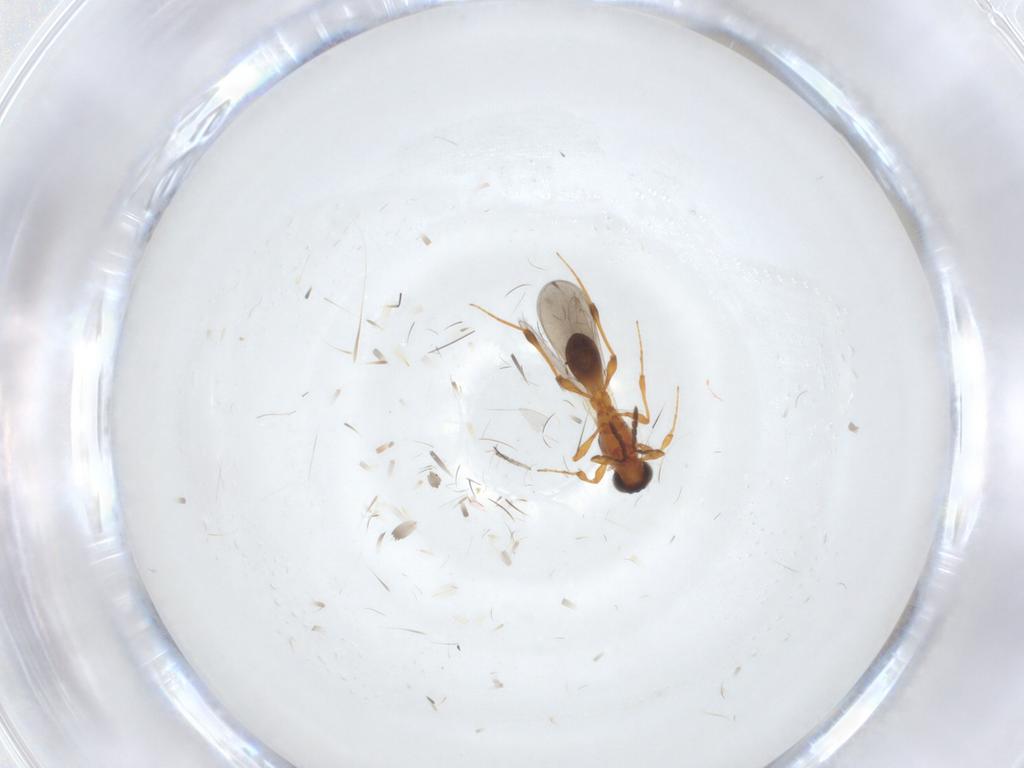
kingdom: Animalia
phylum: Arthropoda
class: Insecta
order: Hymenoptera
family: Platygastridae
